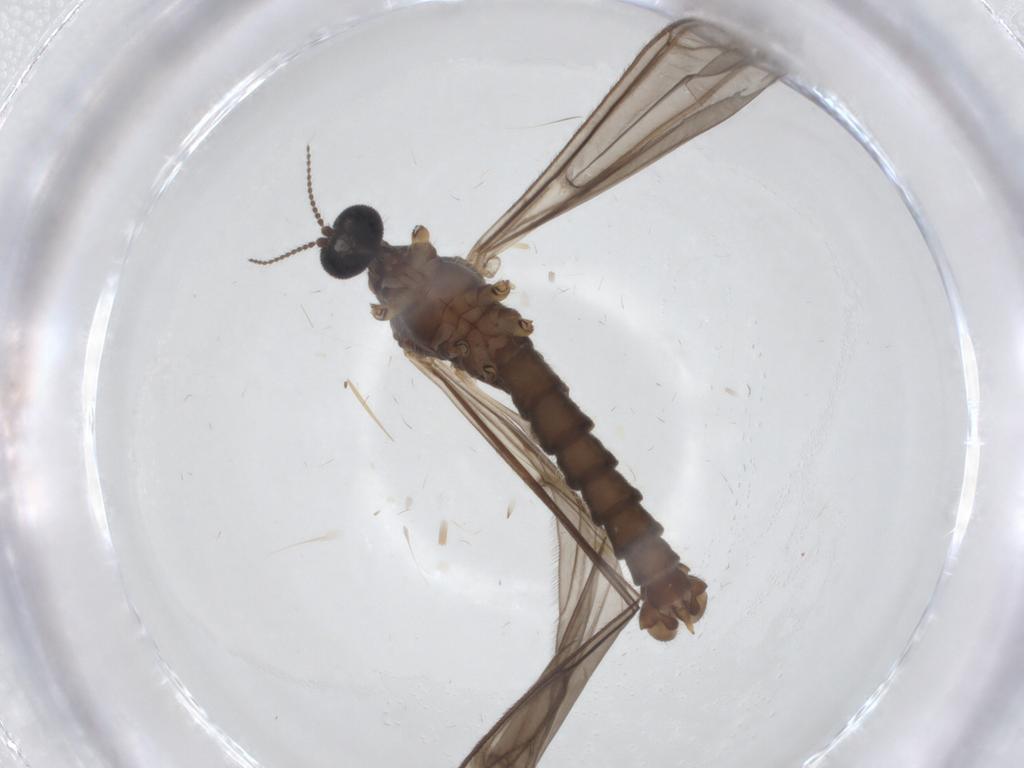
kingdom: Animalia
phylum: Arthropoda
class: Insecta
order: Diptera
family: Chironomidae
